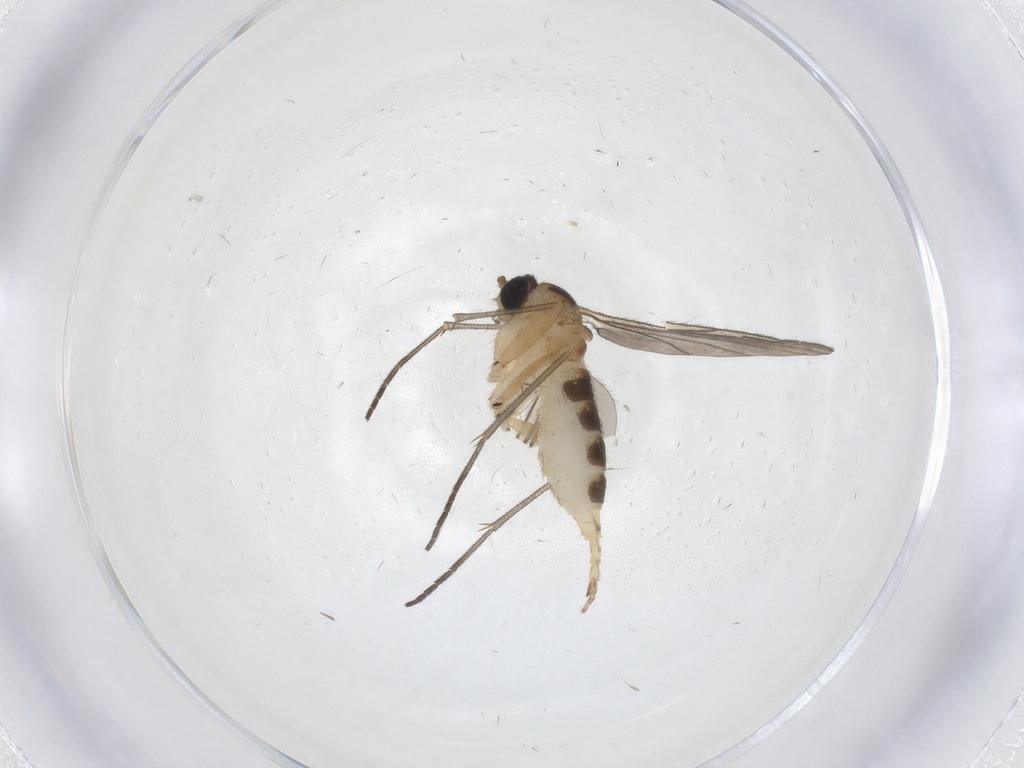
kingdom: Animalia
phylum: Arthropoda
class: Insecta
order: Diptera
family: Sciaridae
